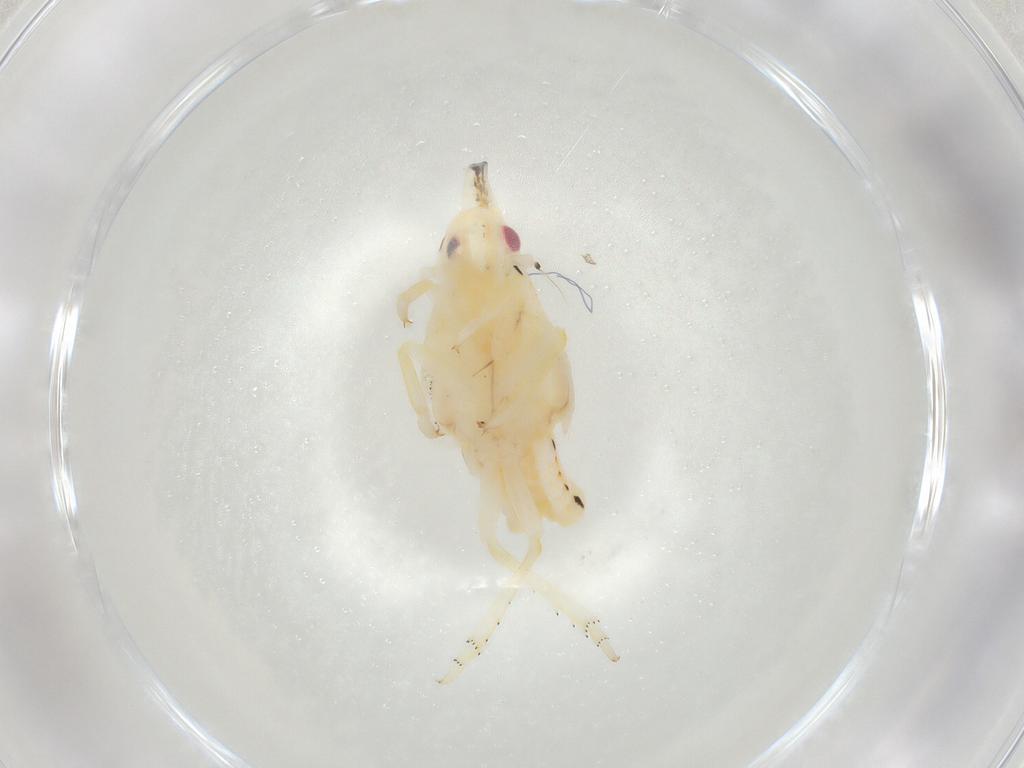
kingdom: Animalia
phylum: Arthropoda
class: Insecta
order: Hemiptera
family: Fulgoroidea_incertae_sedis
